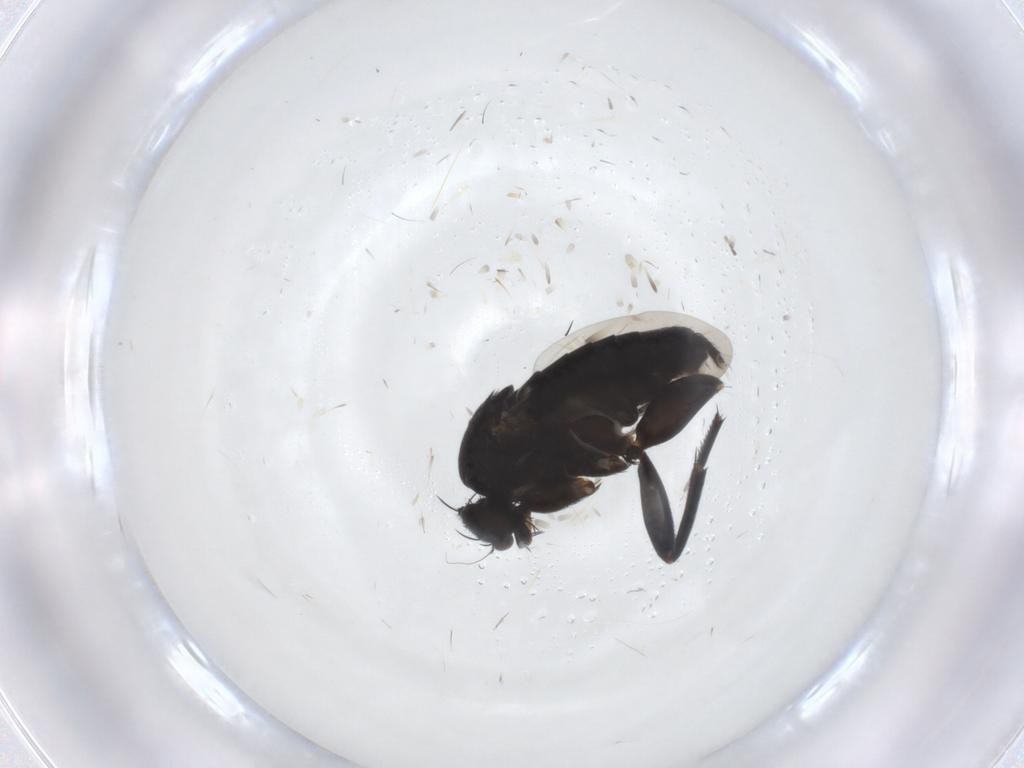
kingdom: Animalia
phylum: Arthropoda
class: Insecta
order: Diptera
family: Phoridae
